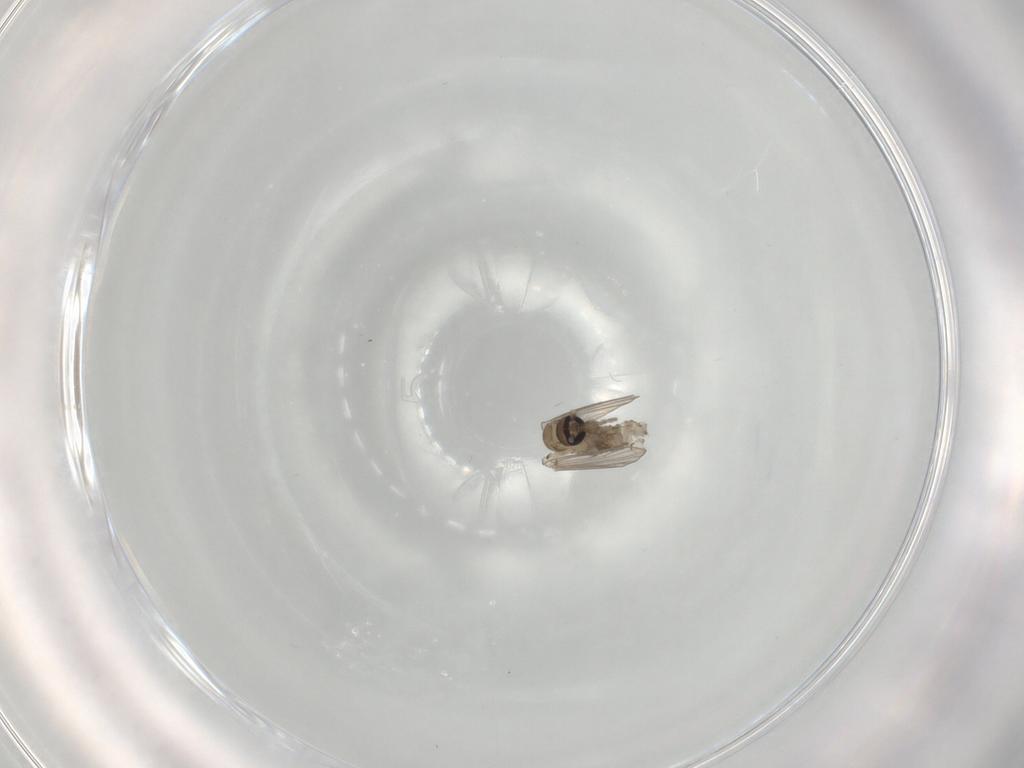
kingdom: Animalia
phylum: Arthropoda
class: Insecta
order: Diptera
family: Psychodidae
